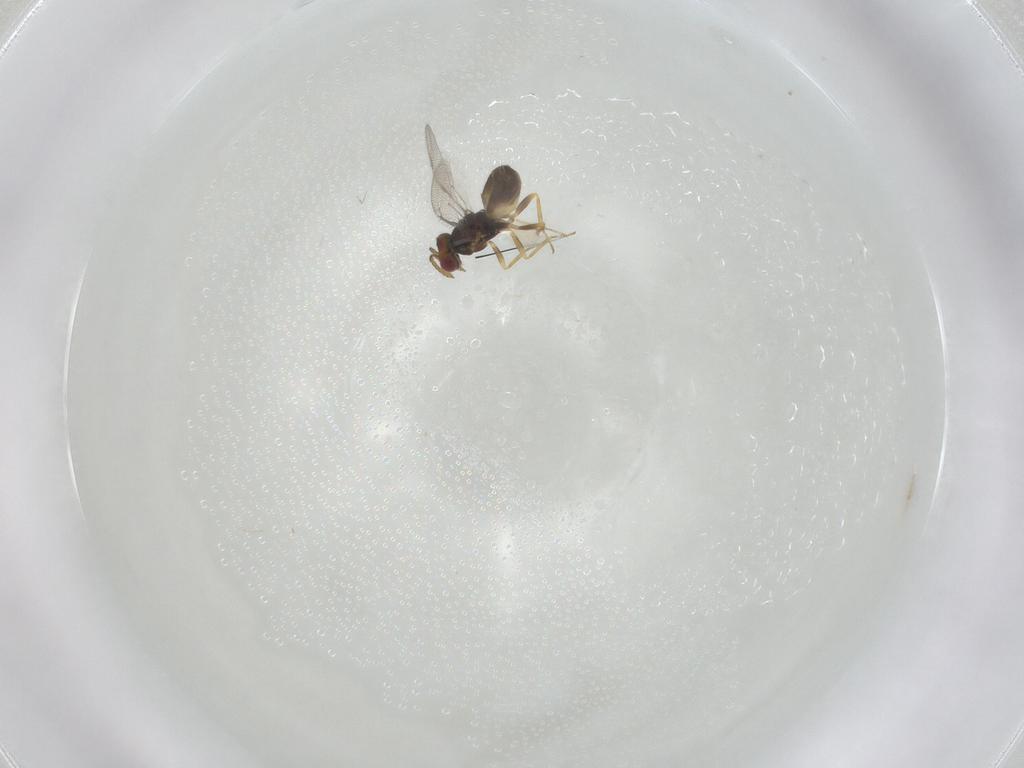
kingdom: Animalia
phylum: Arthropoda
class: Insecta
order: Hymenoptera
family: Eulophidae
